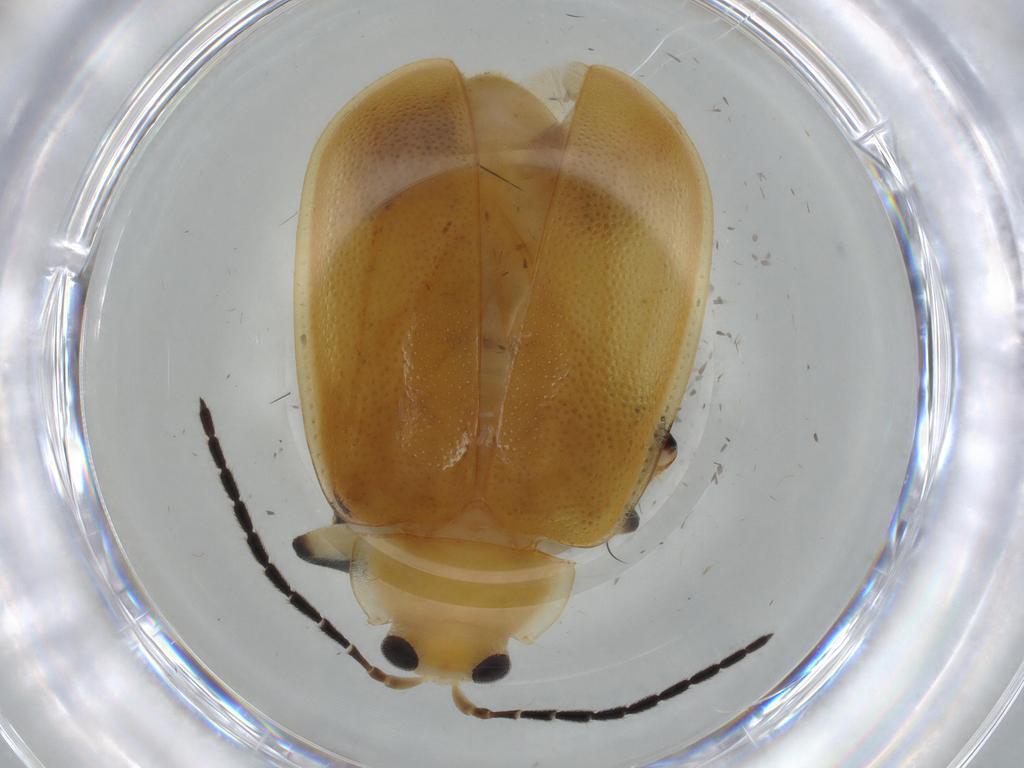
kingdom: Animalia
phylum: Arthropoda
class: Insecta
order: Coleoptera
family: Chrysomelidae
